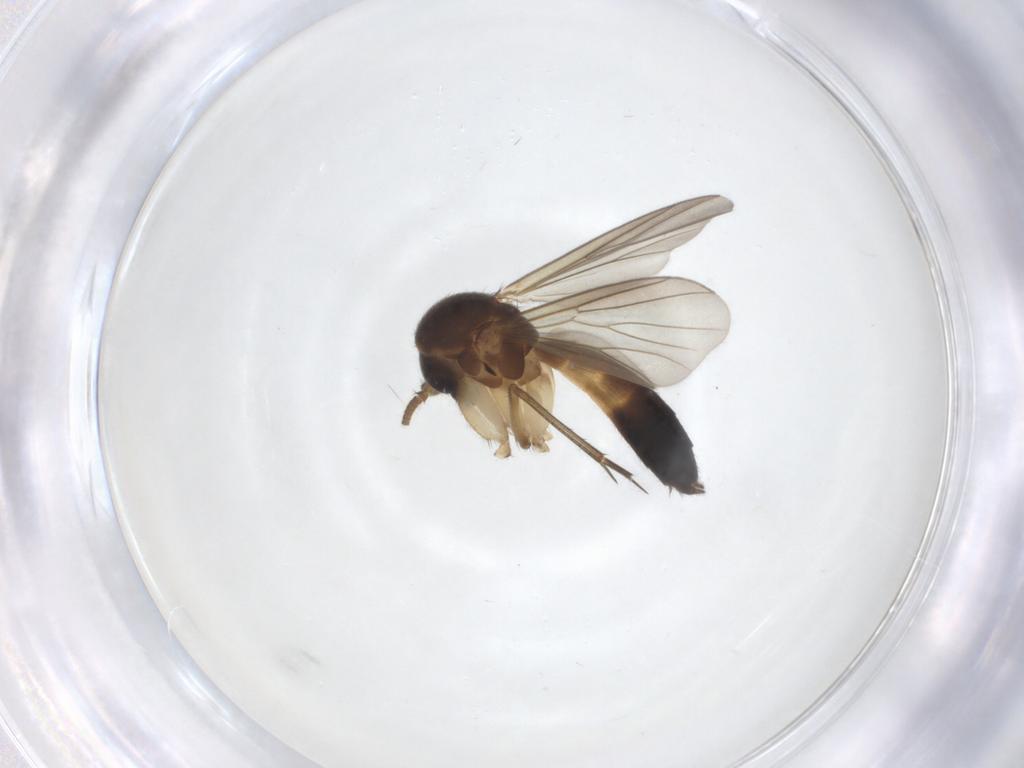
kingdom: Animalia
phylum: Arthropoda
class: Insecta
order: Diptera
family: Mycetophilidae
